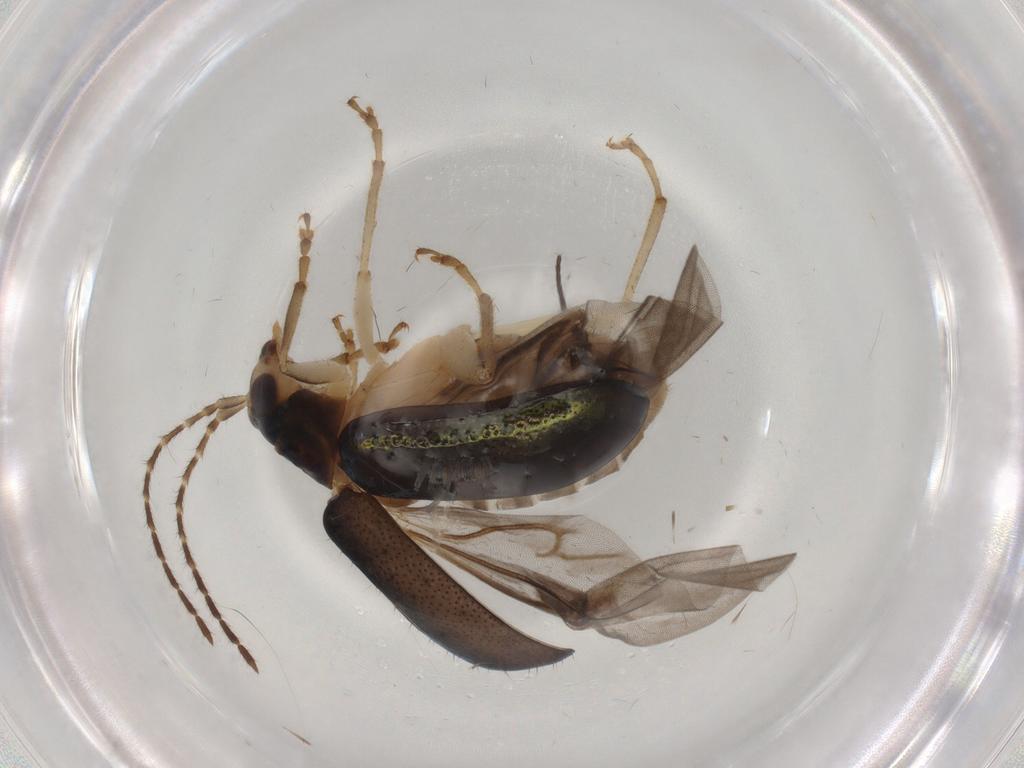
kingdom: Animalia
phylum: Arthropoda
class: Insecta
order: Coleoptera
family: Chrysomelidae
